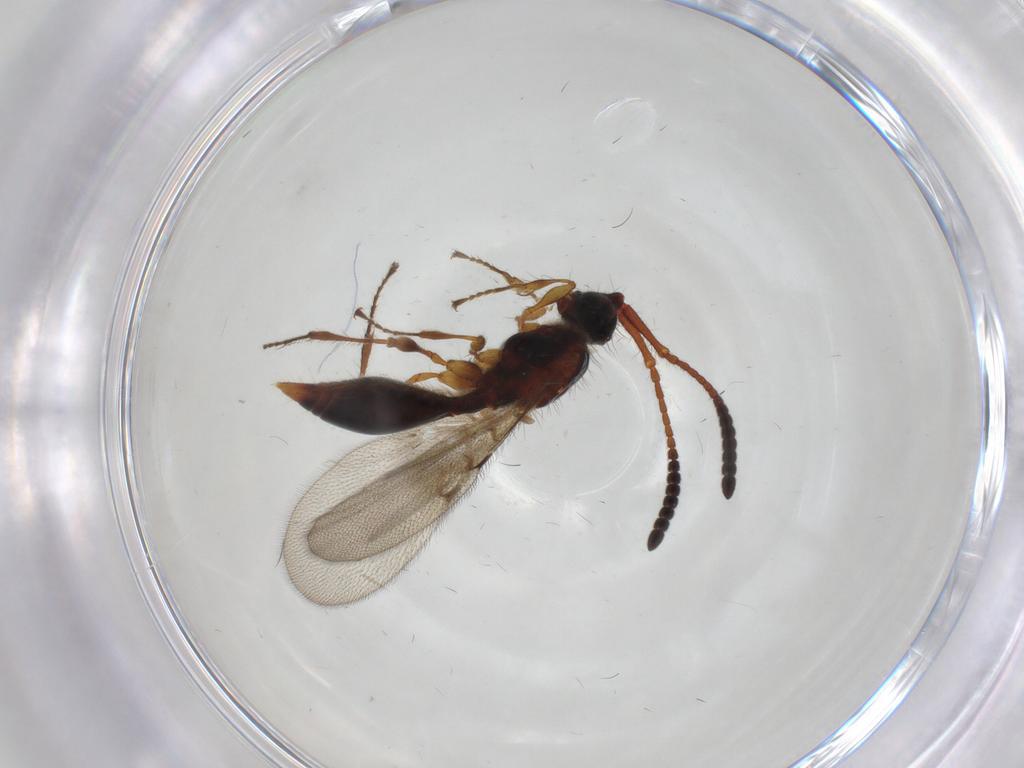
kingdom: Animalia
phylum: Arthropoda
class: Insecta
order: Hymenoptera
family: Diapriidae
